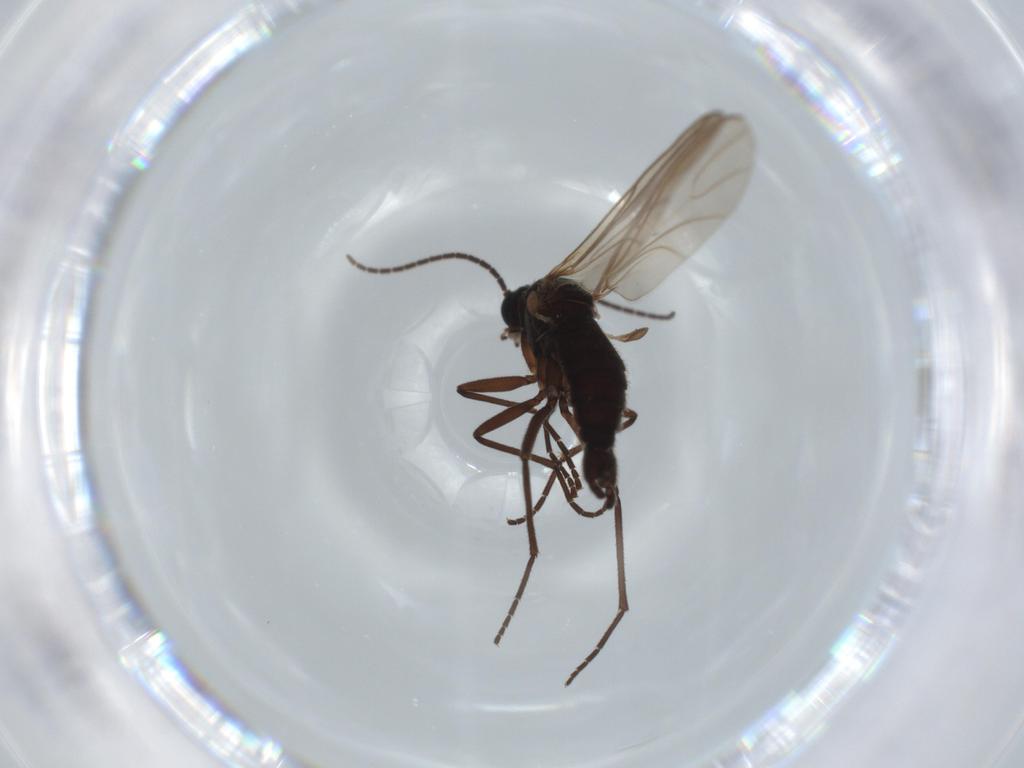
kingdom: Animalia
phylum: Arthropoda
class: Insecta
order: Diptera
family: Sciaridae
